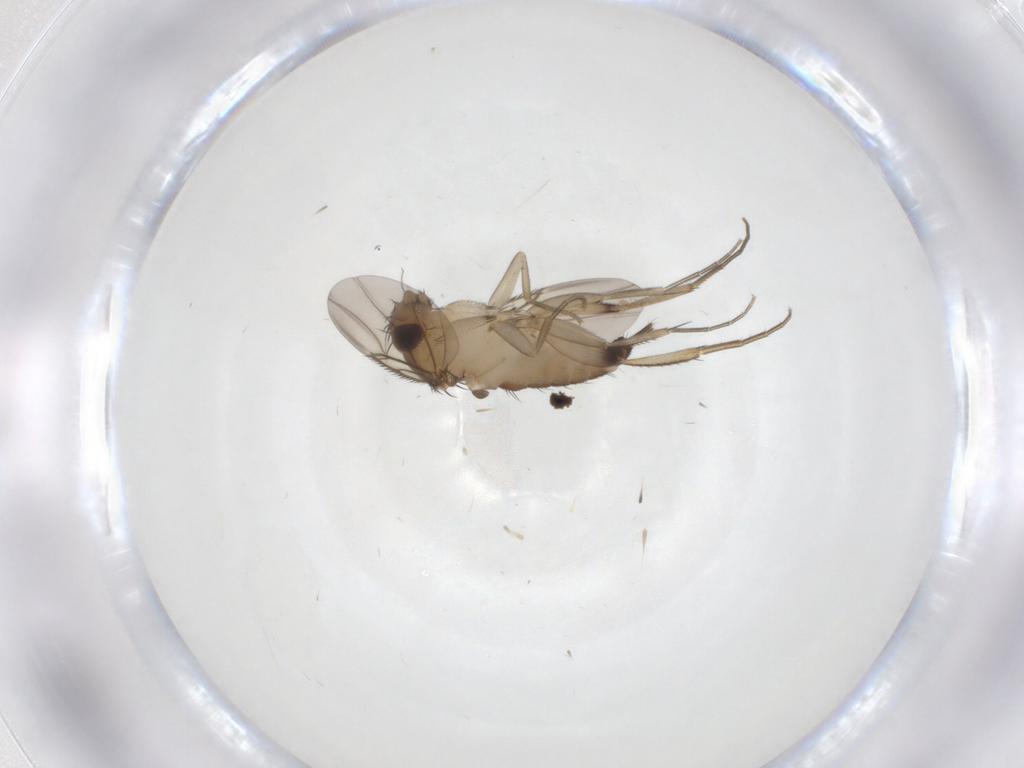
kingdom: Animalia
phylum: Arthropoda
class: Insecta
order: Diptera
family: Phoridae
